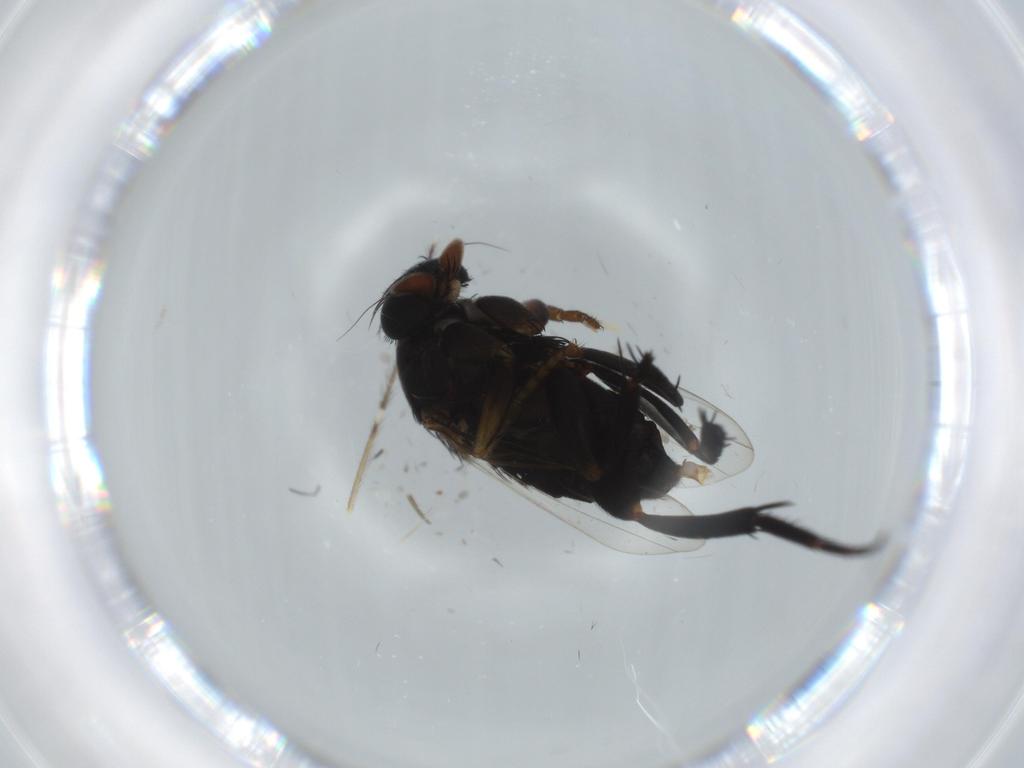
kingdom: Animalia
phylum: Arthropoda
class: Insecta
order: Diptera
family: Phoridae
